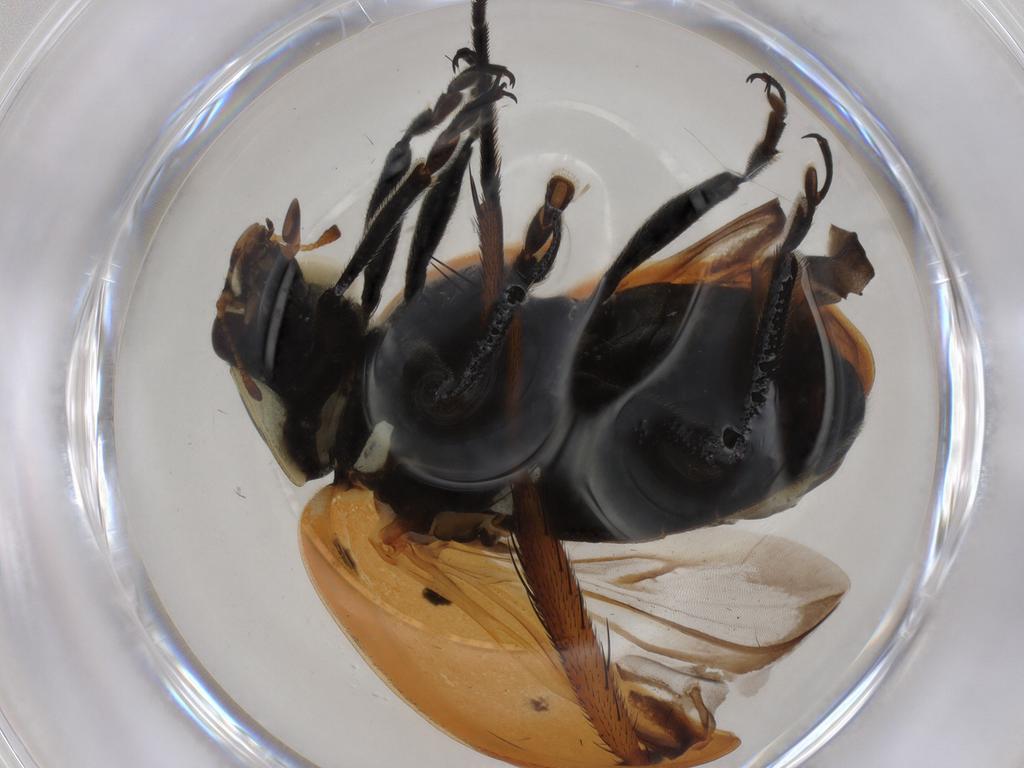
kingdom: Animalia
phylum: Arthropoda
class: Insecta
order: Coleoptera
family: Coccinellidae
